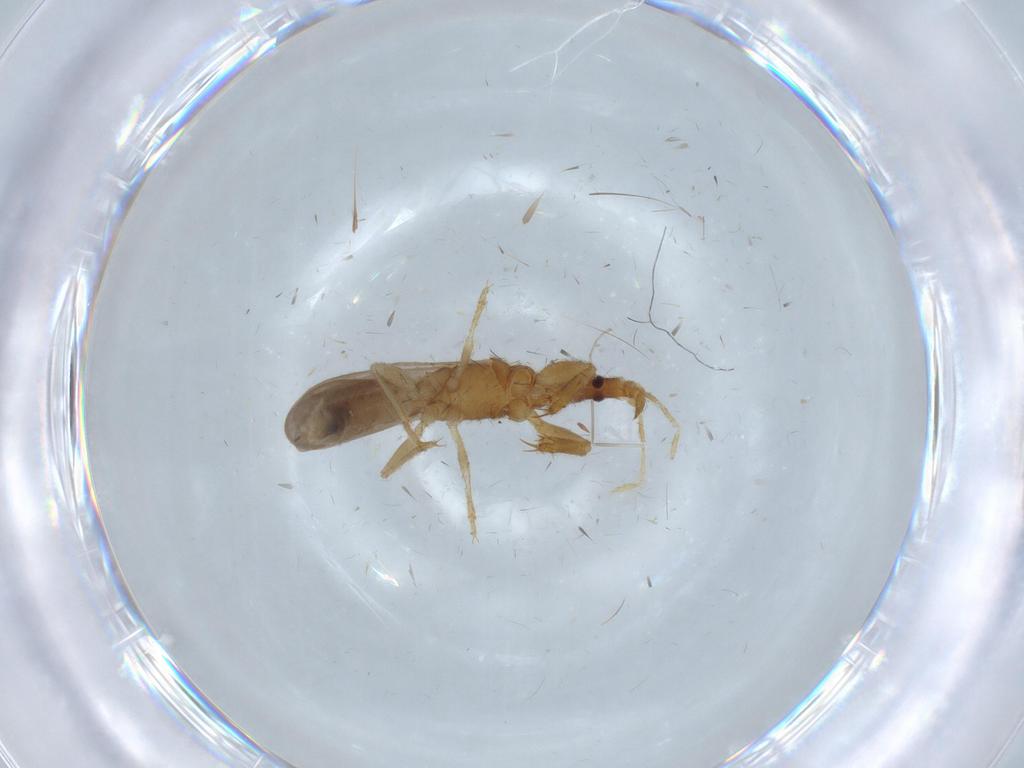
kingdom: Animalia
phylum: Arthropoda
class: Insecta
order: Hemiptera
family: Enicocephalidae
